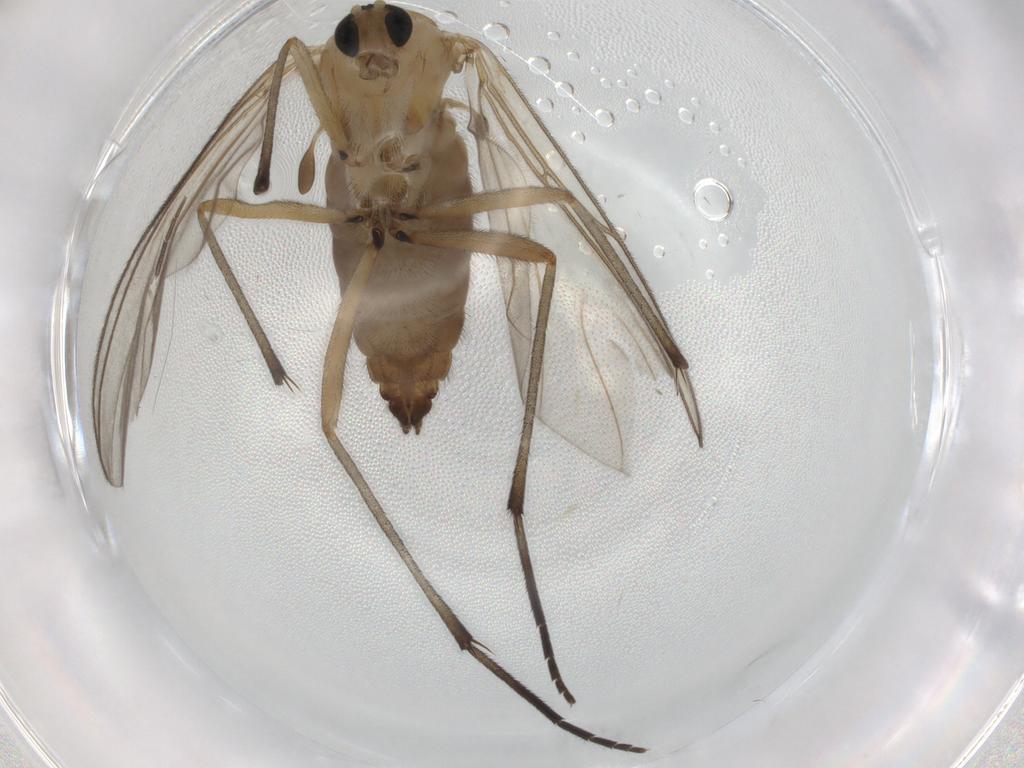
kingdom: Animalia
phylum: Arthropoda
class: Insecta
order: Diptera
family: Sciaridae
